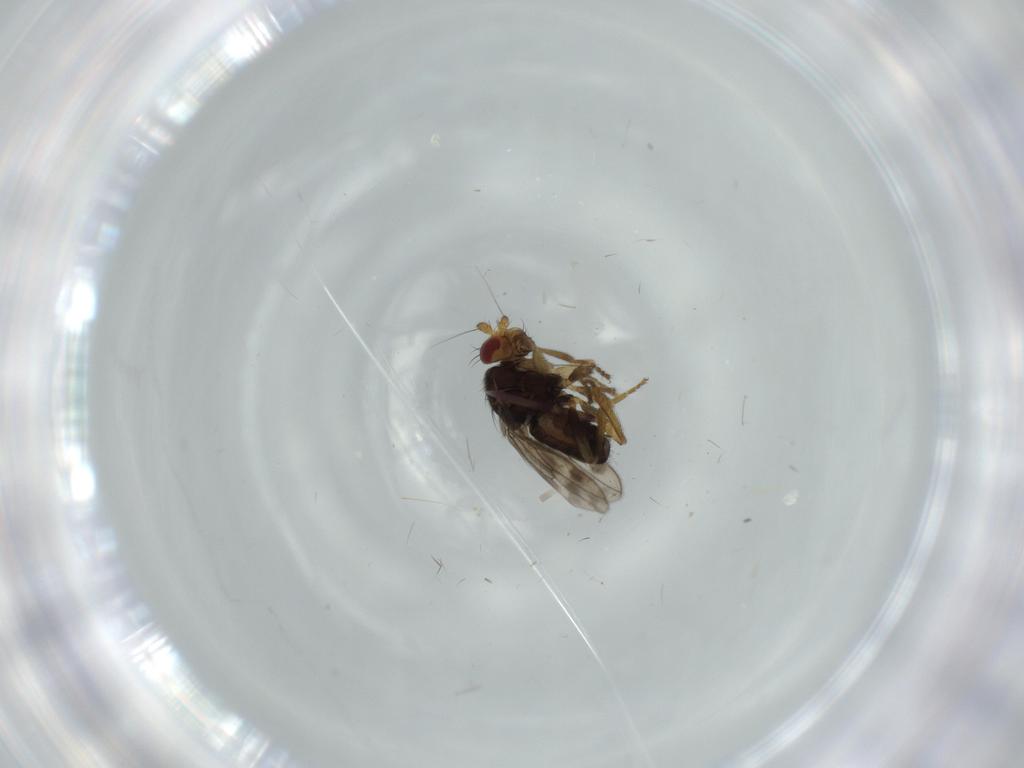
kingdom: Animalia
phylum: Arthropoda
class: Insecta
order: Diptera
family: Sphaeroceridae
